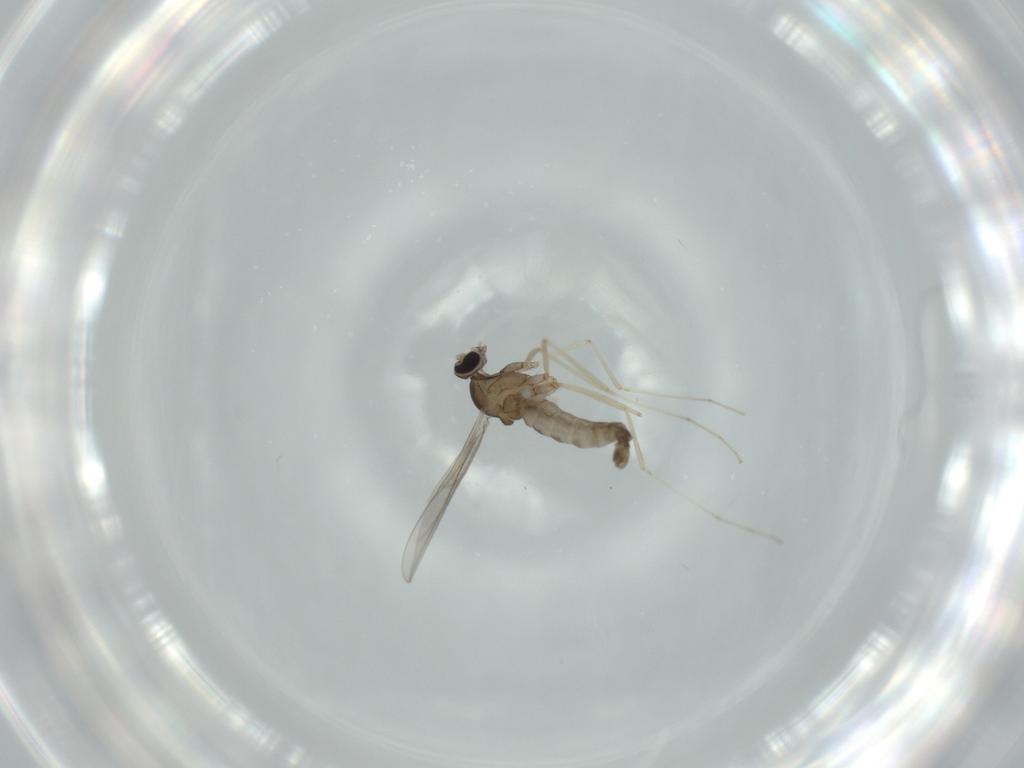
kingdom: Animalia
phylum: Arthropoda
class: Insecta
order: Diptera
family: Cecidomyiidae
